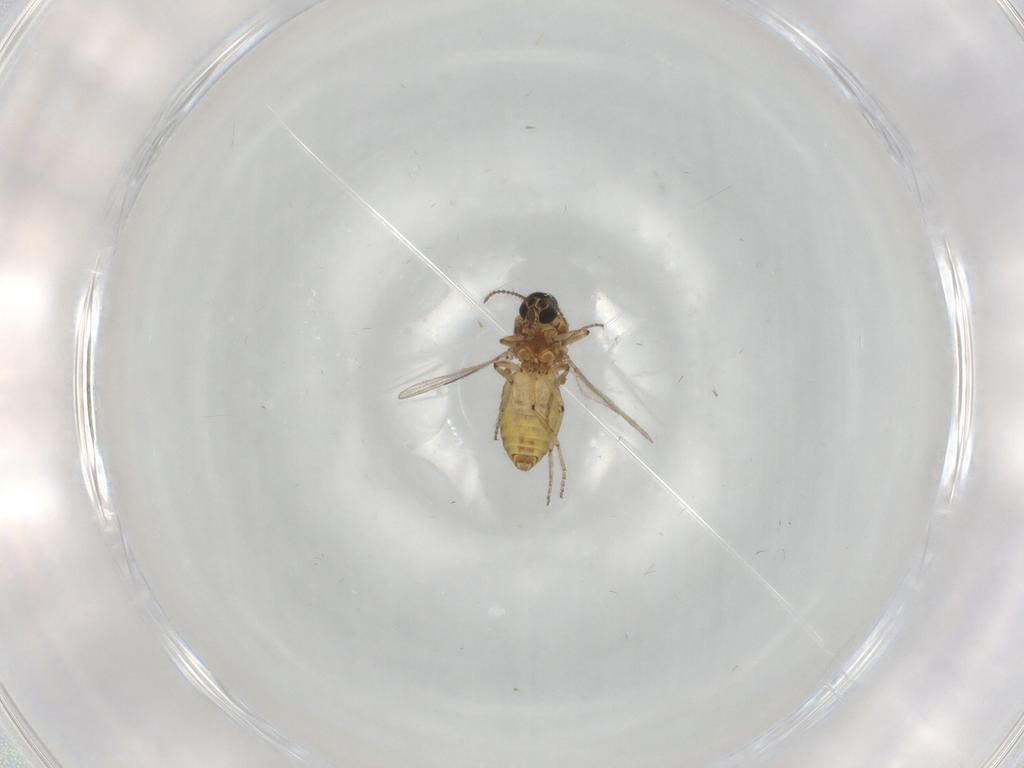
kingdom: Animalia
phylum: Arthropoda
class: Insecta
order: Diptera
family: Ceratopogonidae
